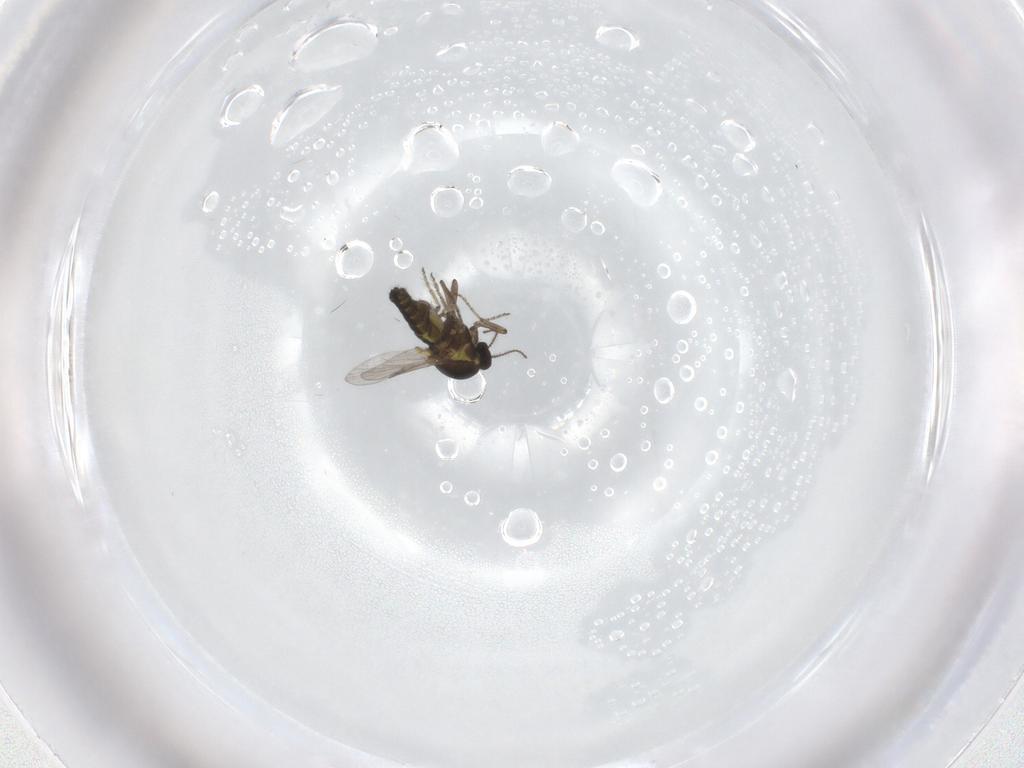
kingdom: Animalia
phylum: Arthropoda
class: Insecta
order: Diptera
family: Ceratopogonidae
